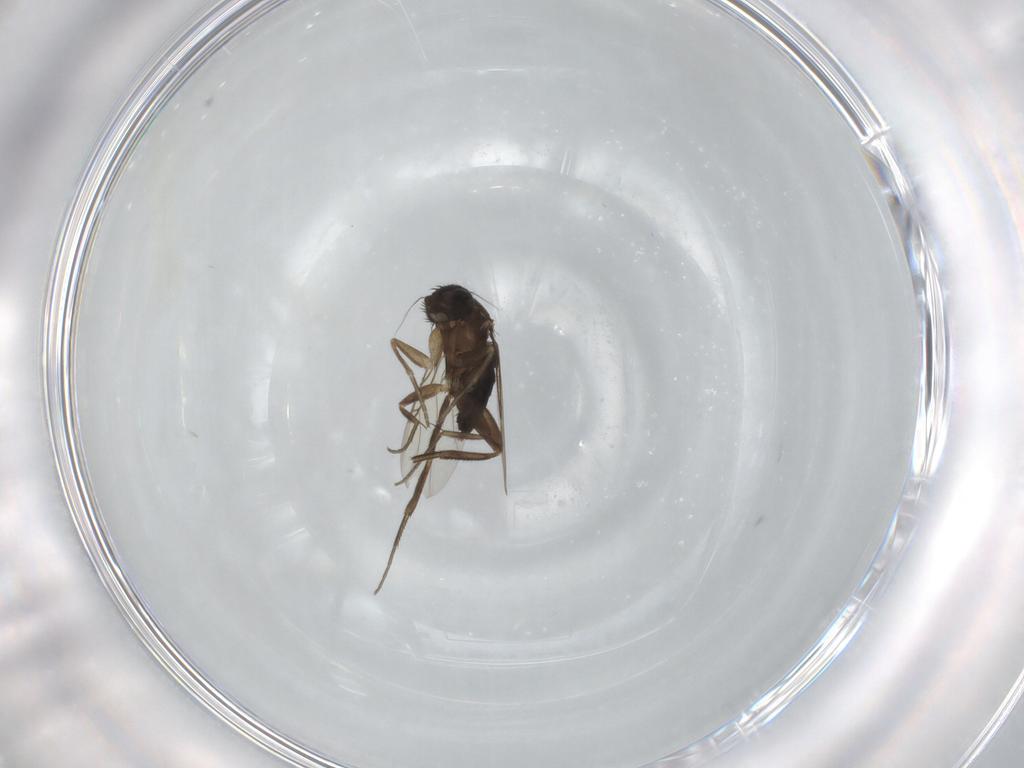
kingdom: Animalia
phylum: Arthropoda
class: Insecta
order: Diptera
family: Phoridae
